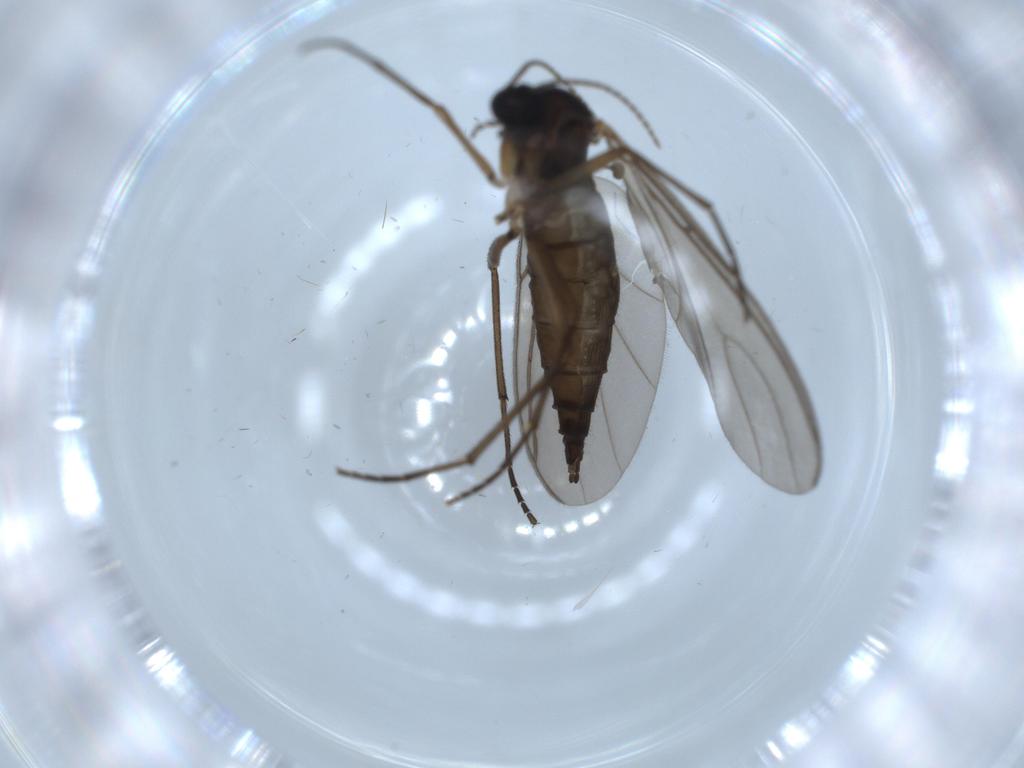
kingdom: Animalia
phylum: Arthropoda
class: Insecta
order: Diptera
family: Sciaridae
